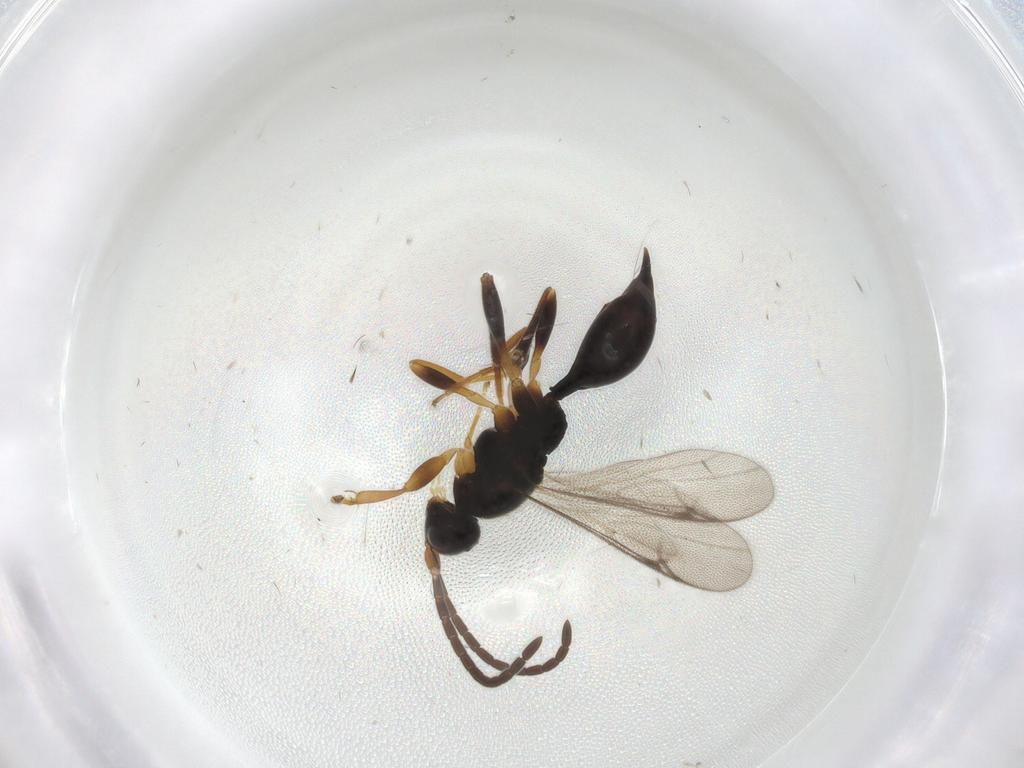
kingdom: Animalia
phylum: Arthropoda
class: Insecta
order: Hymenoptera
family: Proctotrupidae
